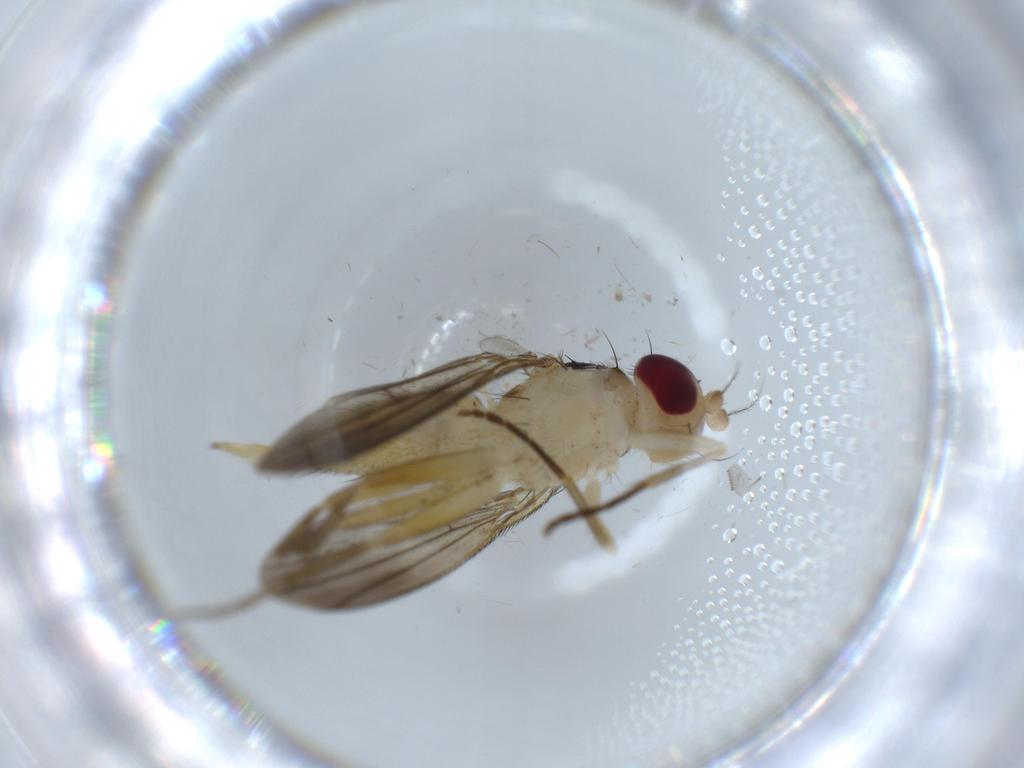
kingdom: Animalia
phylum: Arthropoda
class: Insecta
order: Diptera
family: Clusiidae
